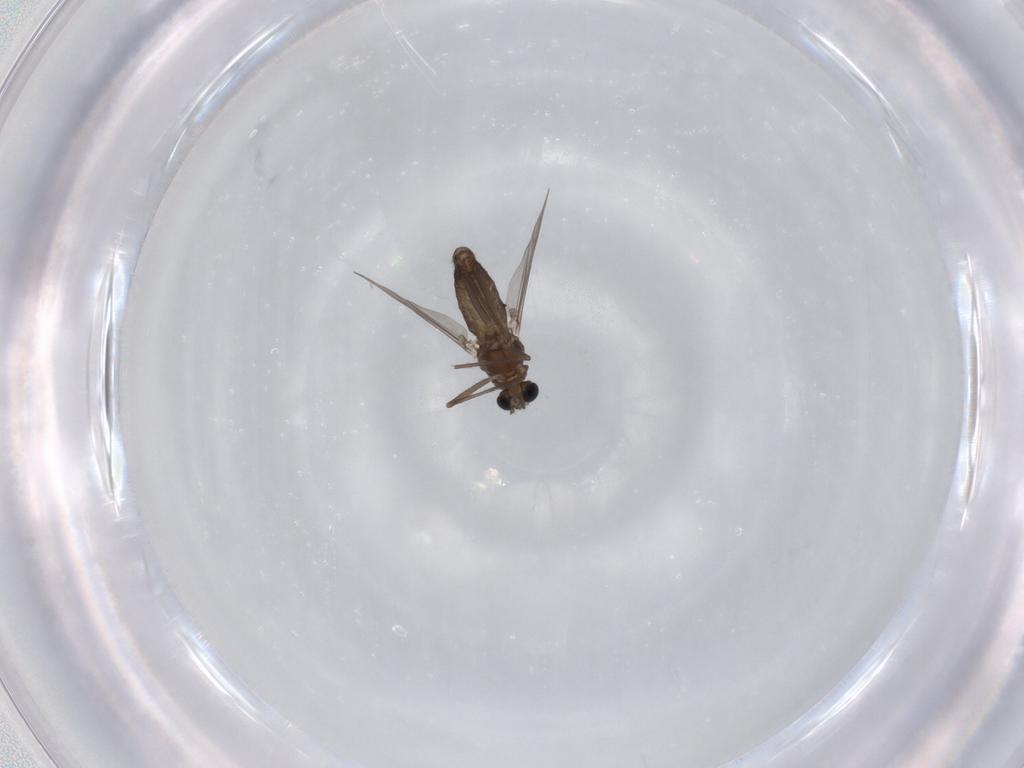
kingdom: Animalia
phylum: Arthropoda
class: Insecta
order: Diptera
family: Chironomidae
